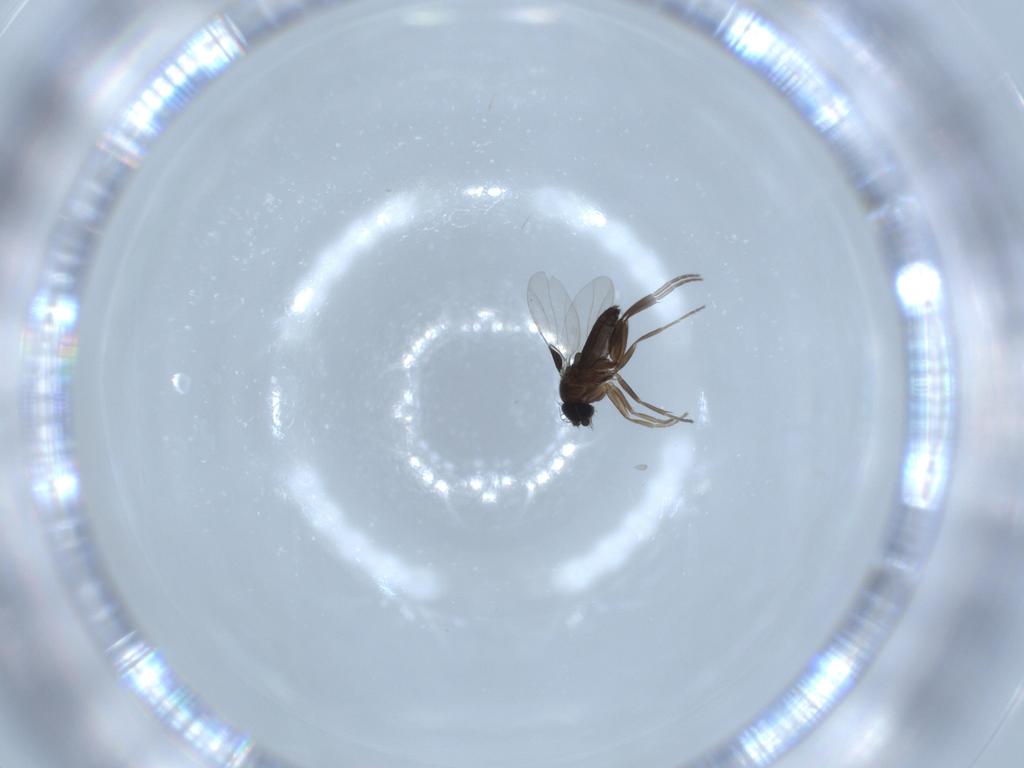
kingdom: Animalia
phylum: Arthropoda
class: Insecta
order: Diptera
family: Phoridae
